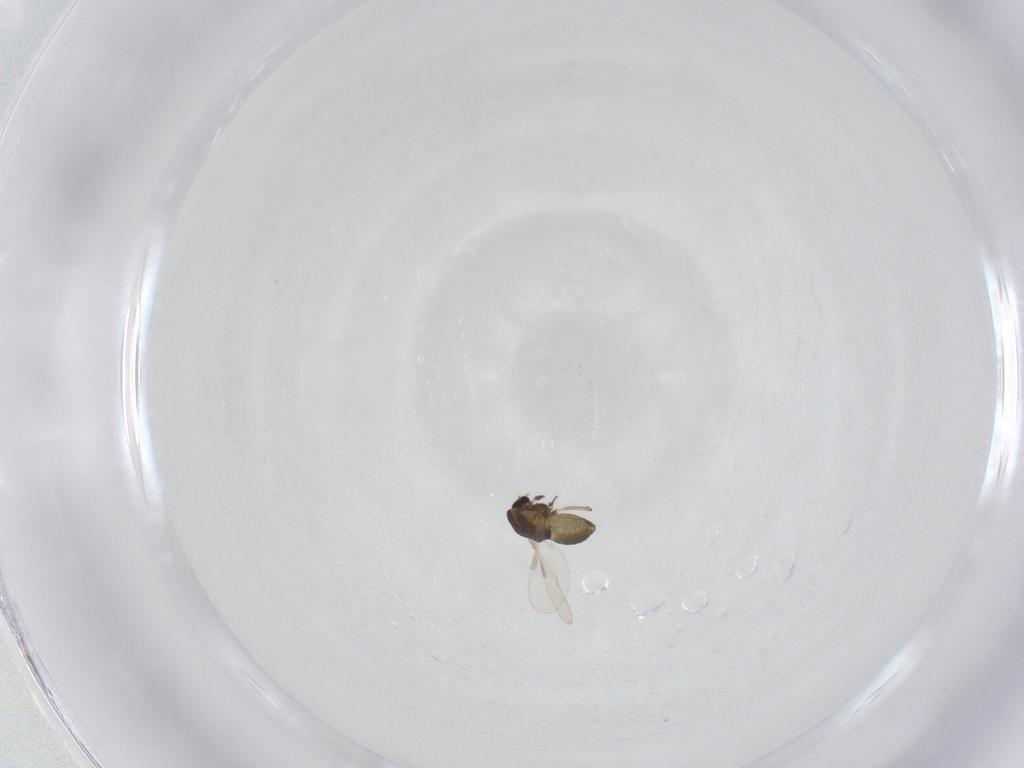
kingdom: Animalia
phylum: Arthropoda
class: Insecta
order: Diptera
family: Chironomidae
